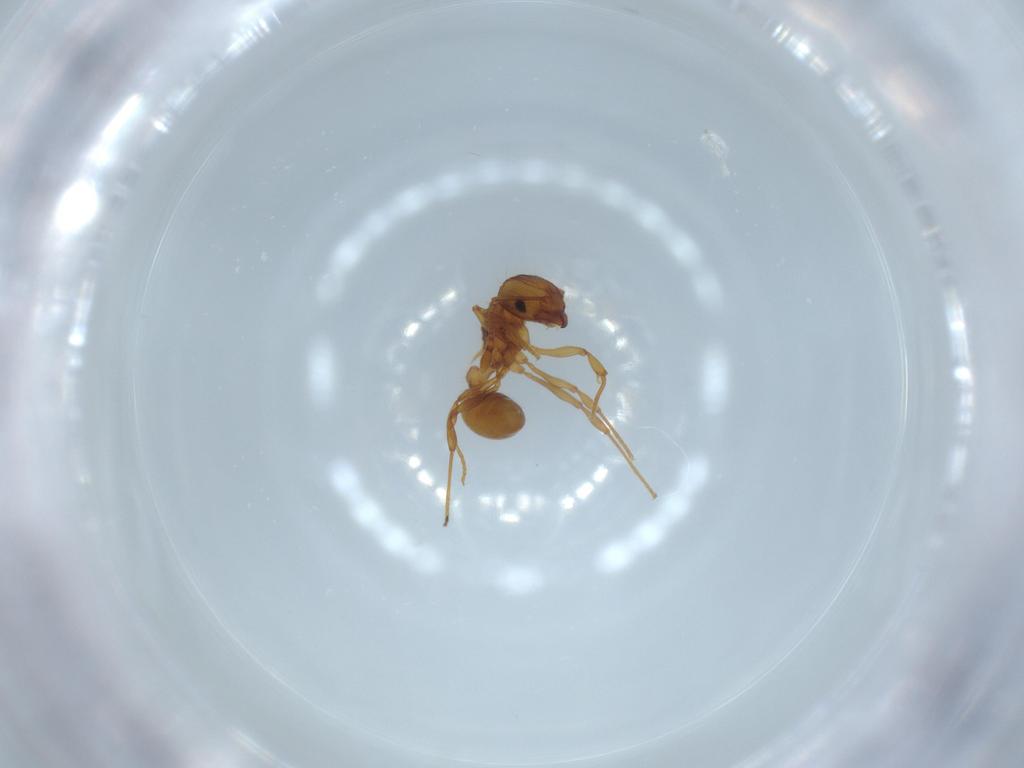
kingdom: Animalia
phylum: Arthropoda
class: Insecta
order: Hymenoptera
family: Formicidae
